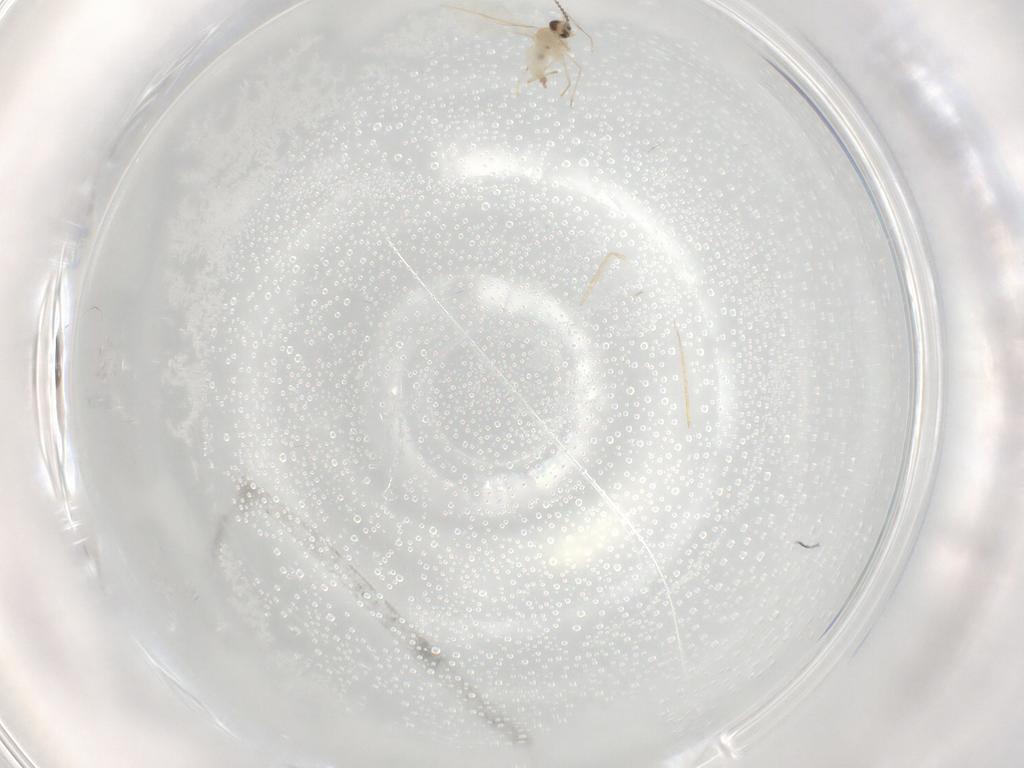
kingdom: Animalia
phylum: Arthropoda
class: Insecta
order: Diptera
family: Cecidomyiidae
